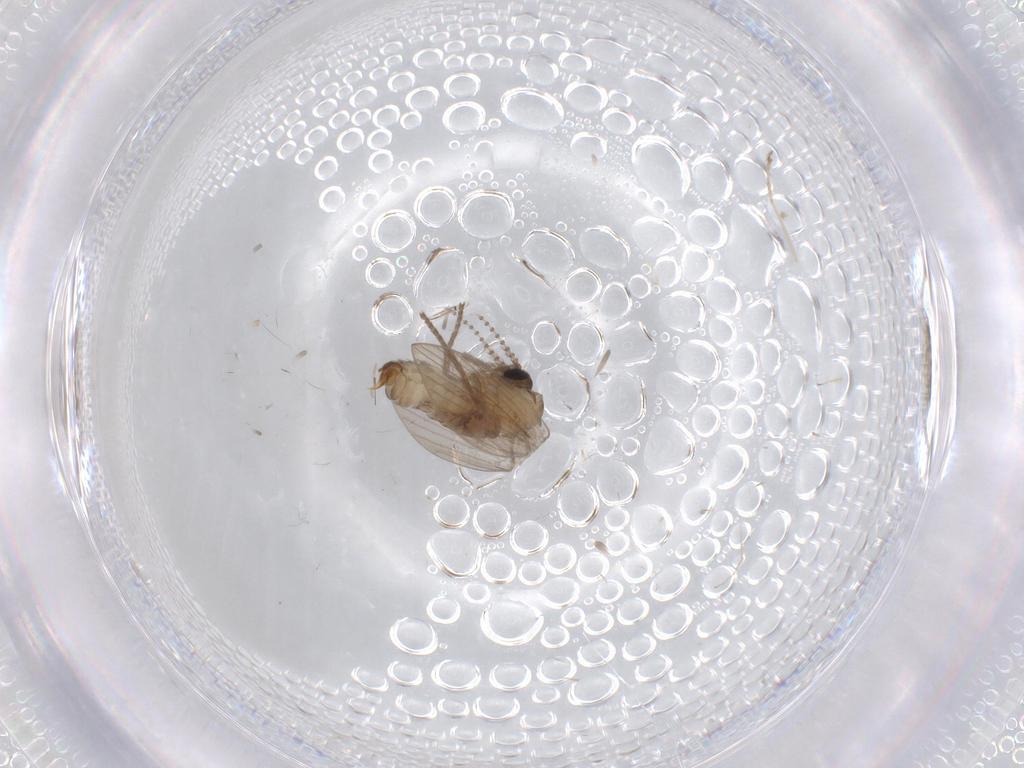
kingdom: Animalia
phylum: Arthropoda
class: Insecta
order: Diptera
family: Psychodidae
